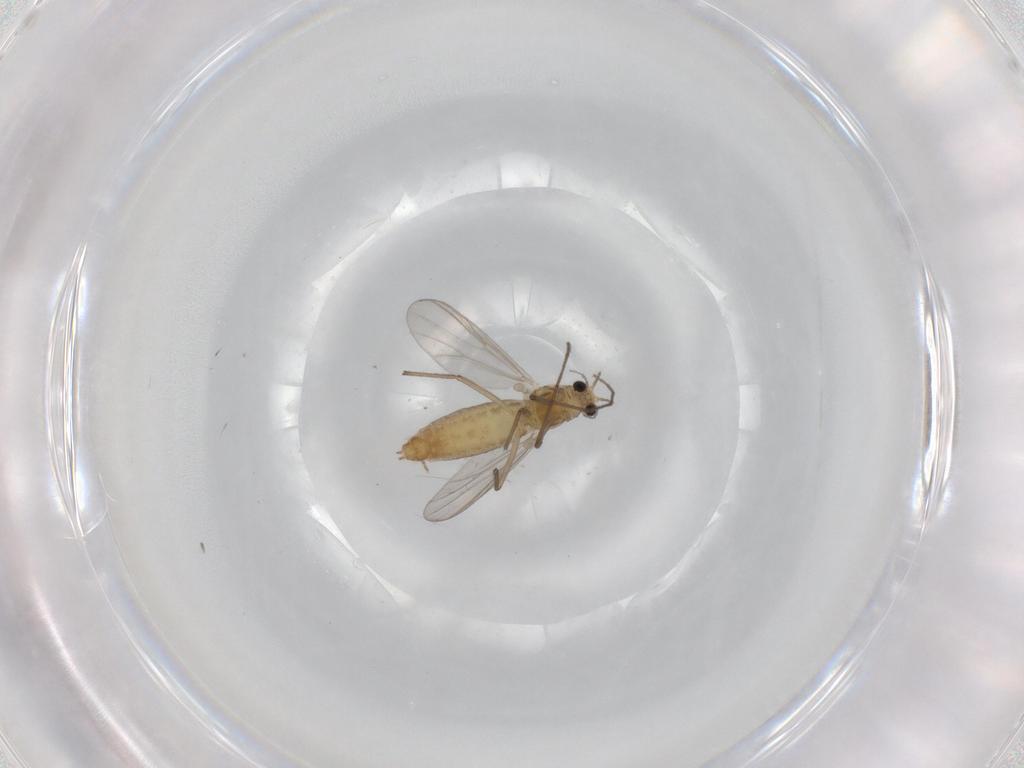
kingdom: Animalia
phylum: Arthropoda
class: Insecta
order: Diptera
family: Chironomidae
